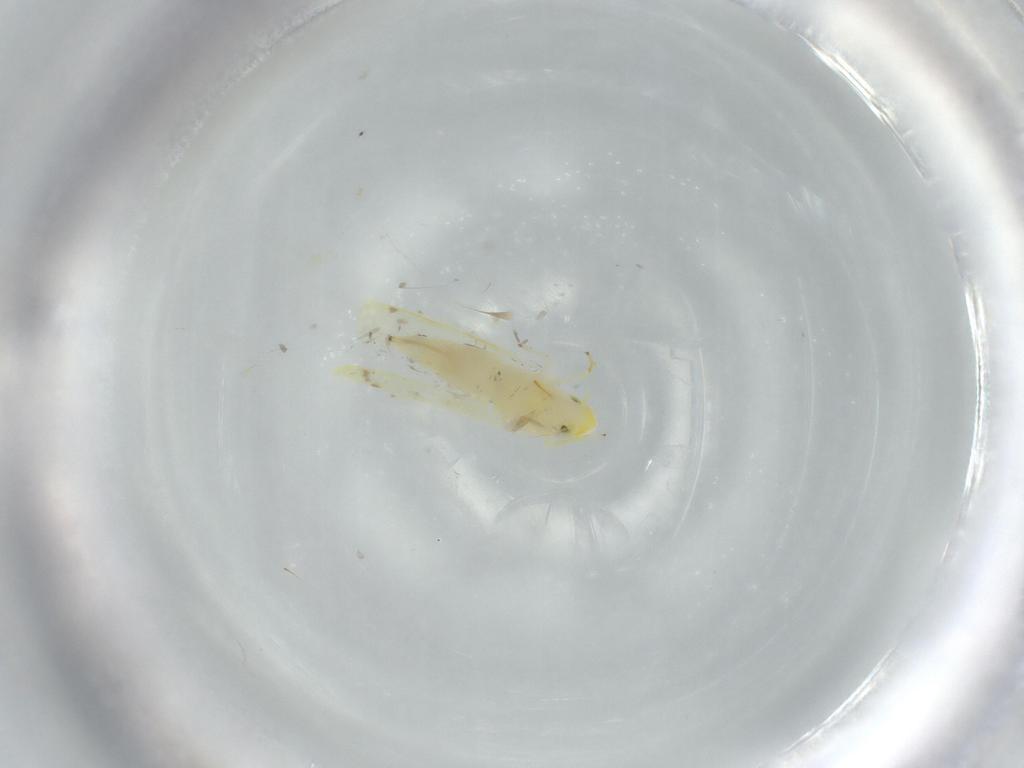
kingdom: Animalia
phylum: Arthropoda
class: Insecta
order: Hemiptera
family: Cicadellidae
